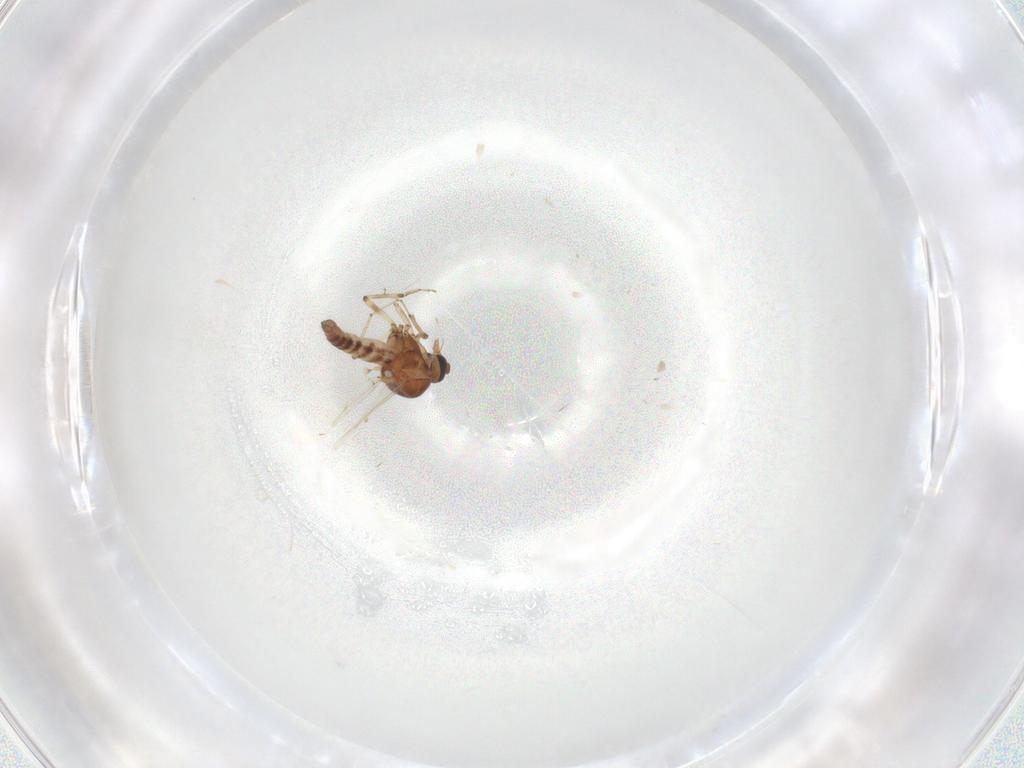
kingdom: Animalia
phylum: Arthropoda
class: Insecta
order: Diptera
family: Ceratopogonidae
